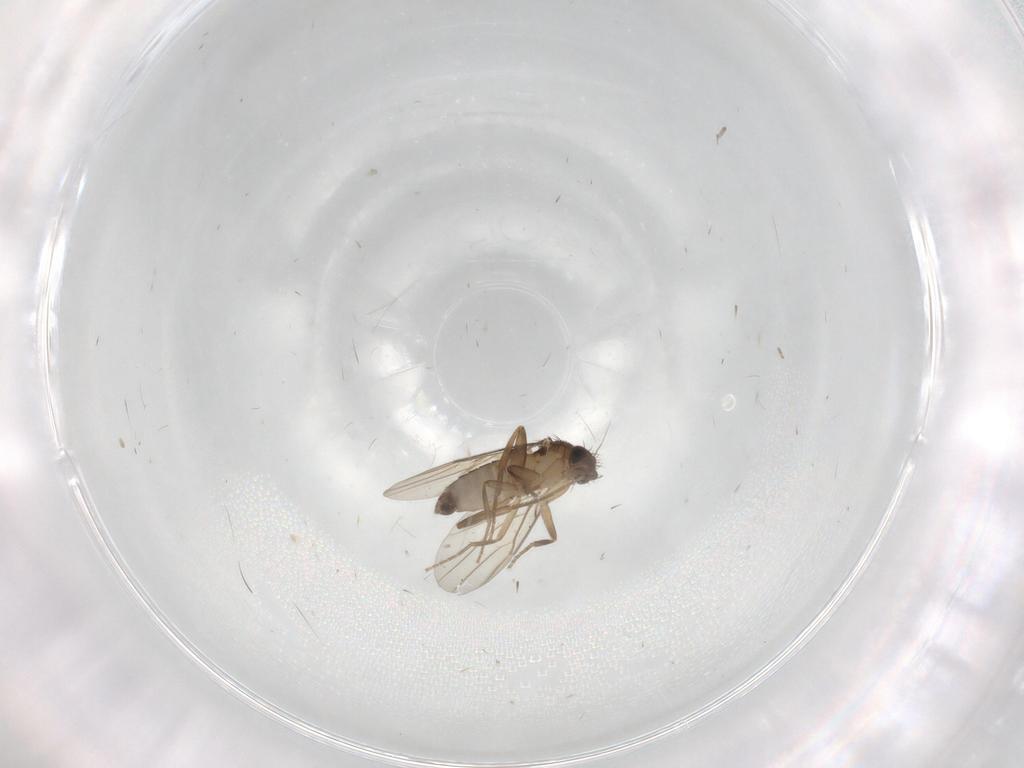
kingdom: Animalia
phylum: Arthropoda
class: Insecta
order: Diptera
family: Phoridae
